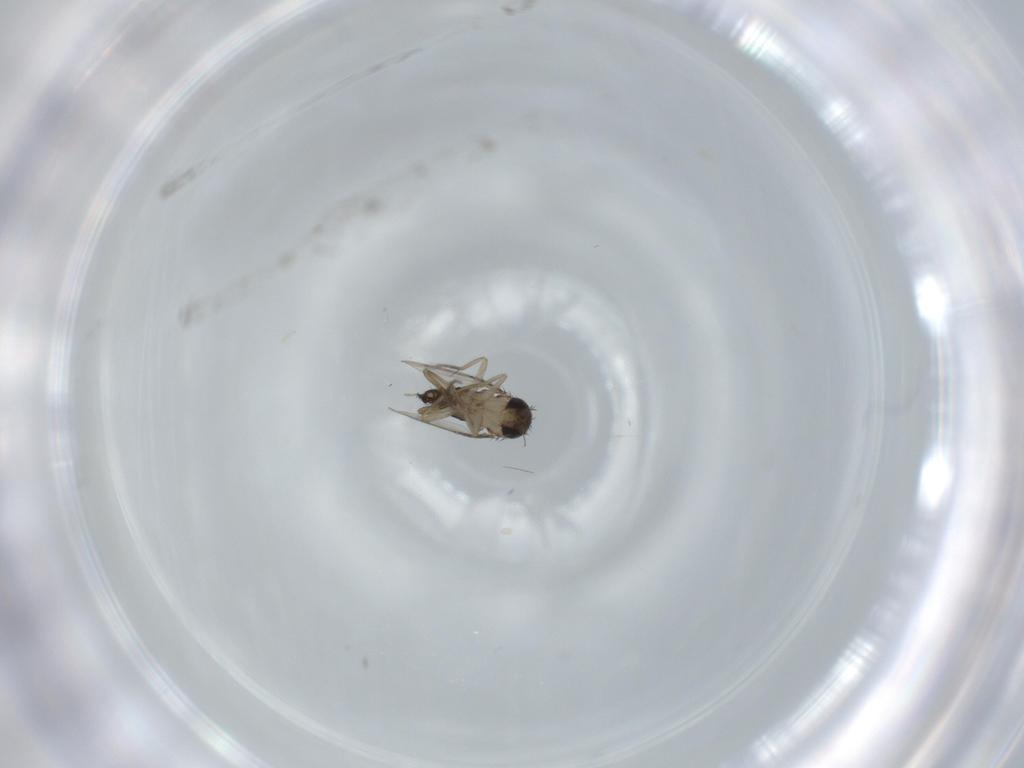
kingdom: Animalia
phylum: Arthropoda
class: Insecta
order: Diptera
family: Phoridae
